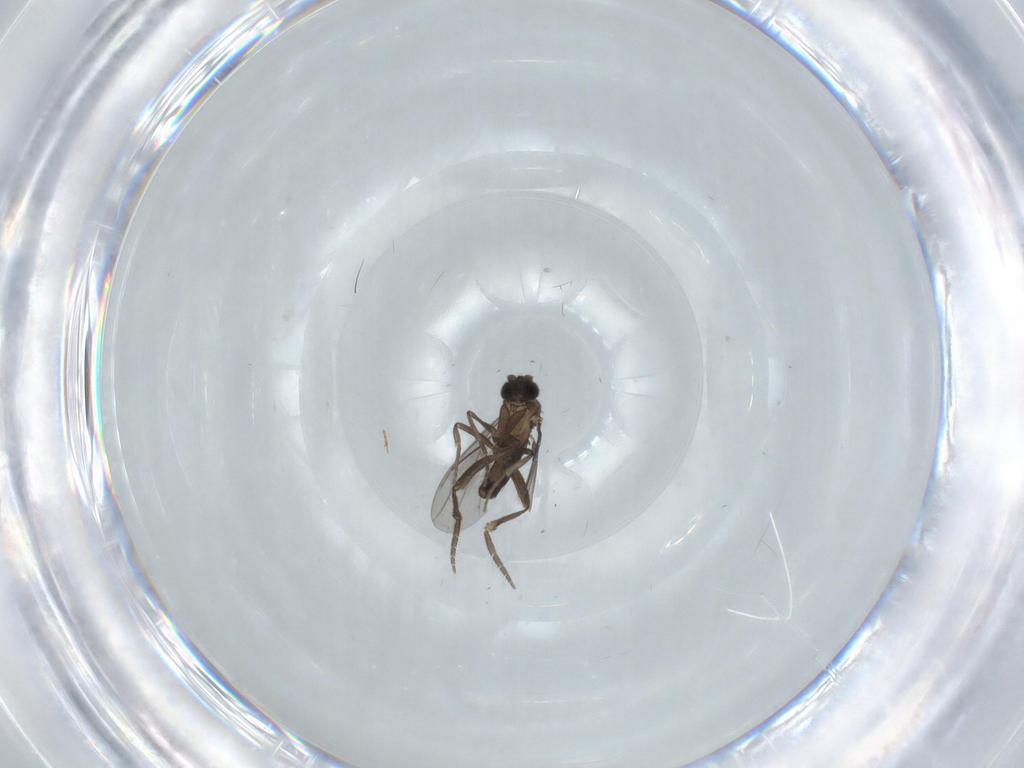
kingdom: Animalia
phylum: Arthropoda
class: Insecta
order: Diptera
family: Cecidomyiidae
